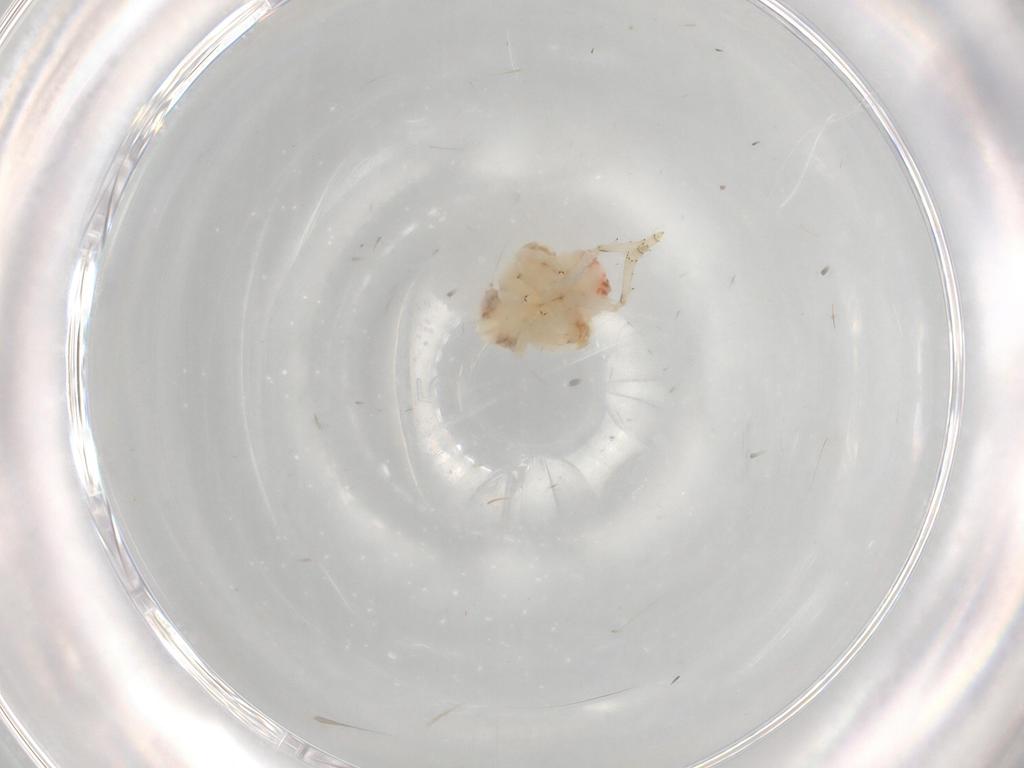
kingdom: Animalia
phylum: Arthropoda
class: Insecta
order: Hemiptera
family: Nogodinidae
